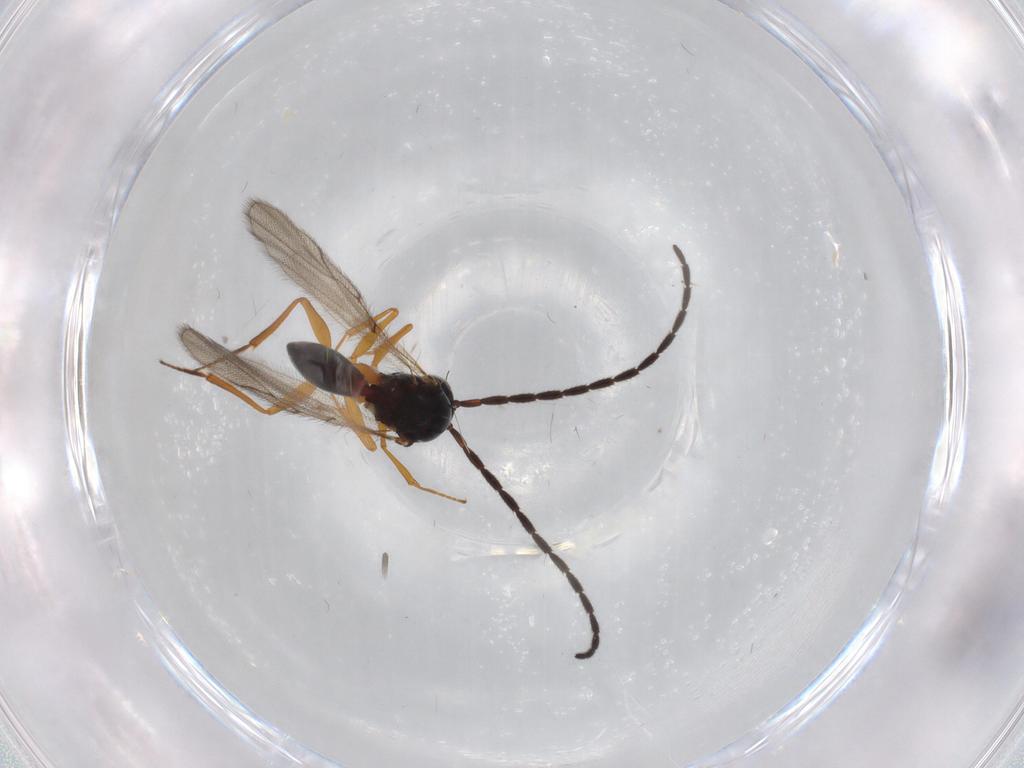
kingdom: Animalia
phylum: Arthropoda
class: Insecta
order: Hymenoptera
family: Figitidae
